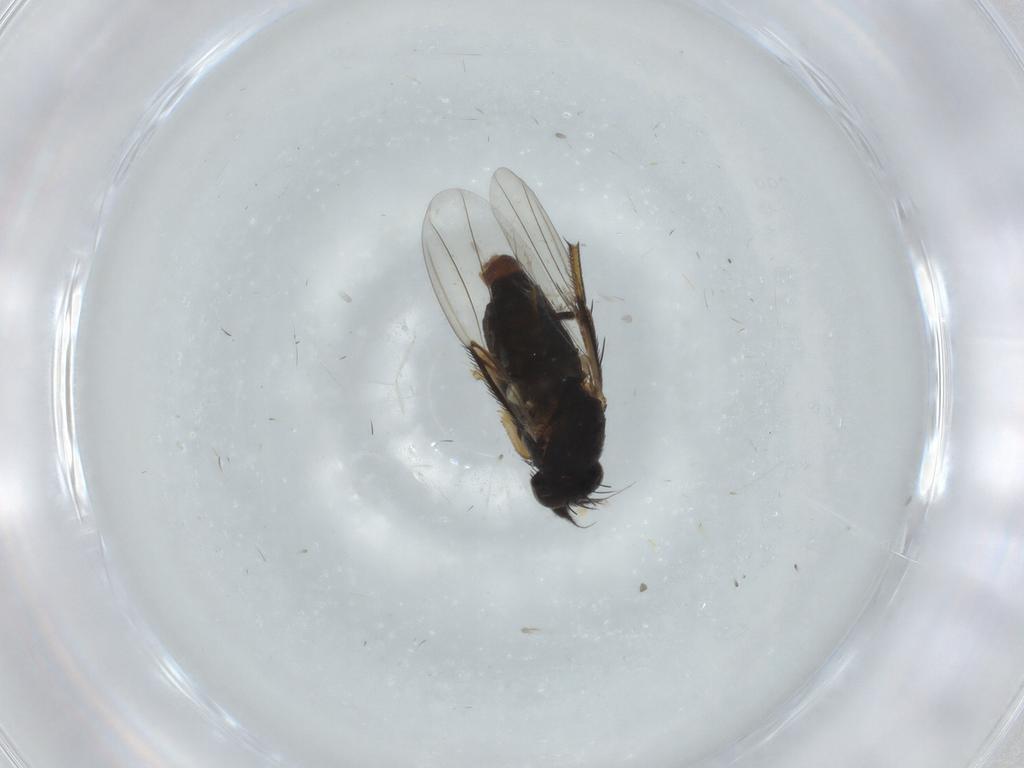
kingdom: Animalia
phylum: Arthropoda
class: Insecta
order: Diptera
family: Phoridae
